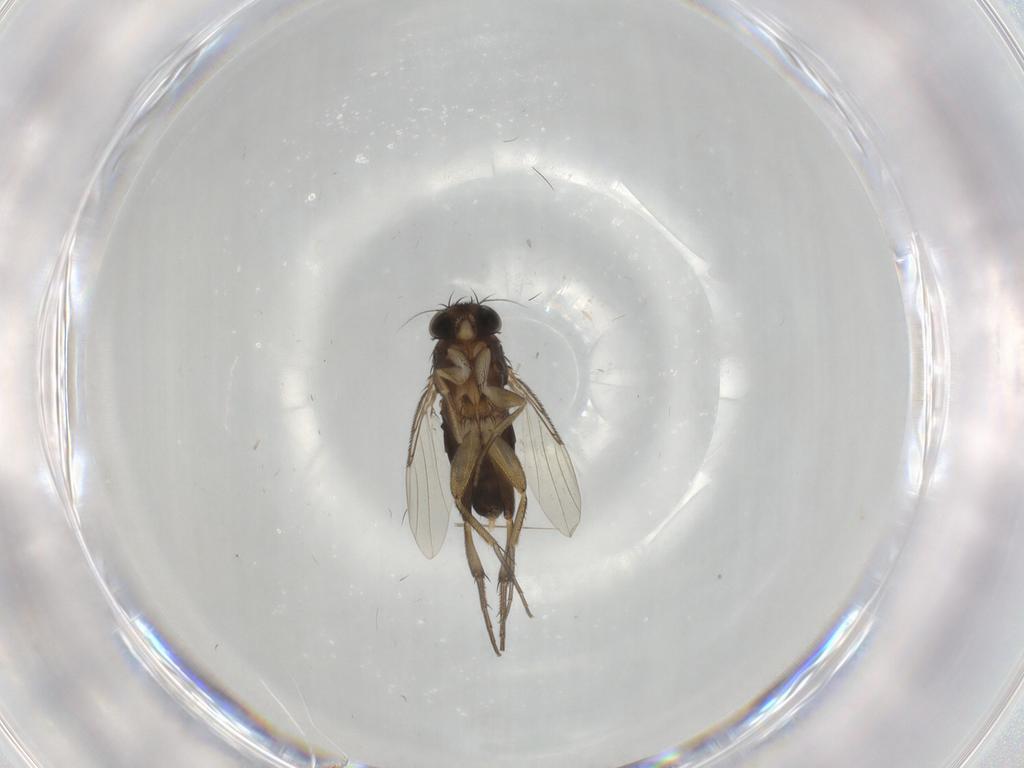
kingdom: Animalia
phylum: Arthropoda
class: Insecta
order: Diptera
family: Phoridae
